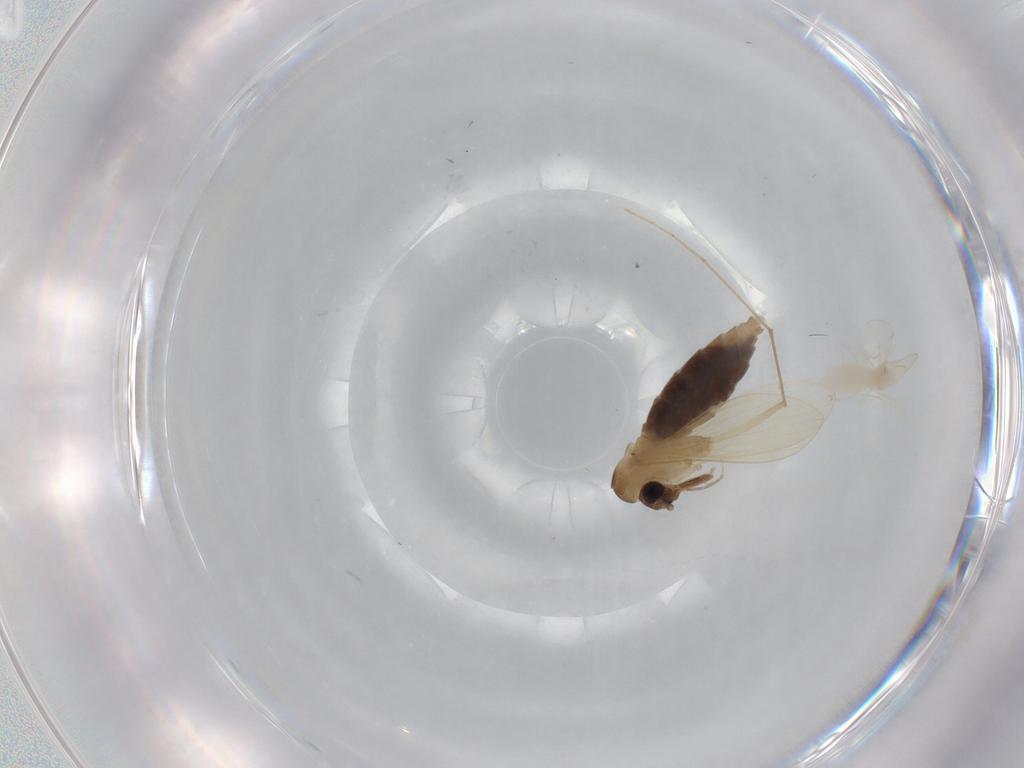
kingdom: Animalia
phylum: Arthropoda
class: Insecta
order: Diptera
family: Psychodidae
